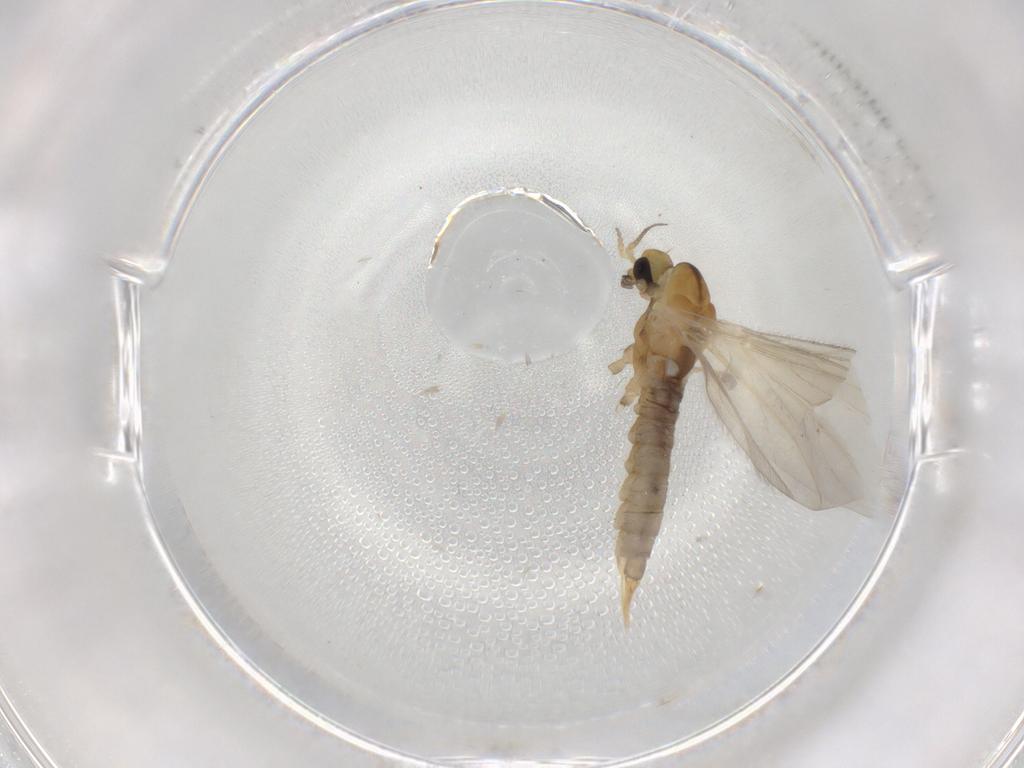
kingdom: Animalia
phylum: Arthropoda
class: Insecta
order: Diptera
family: Limoniidae
